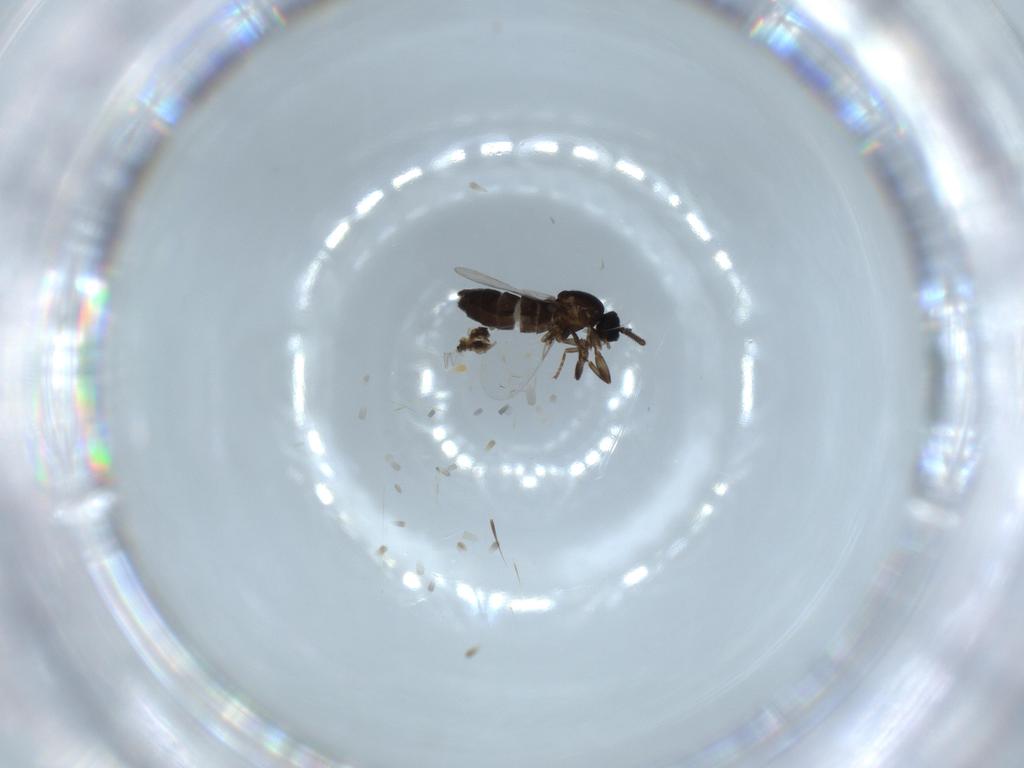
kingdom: Animalia
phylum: Arthropoda
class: Insecta
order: Diptera
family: Cecidomyiidae
